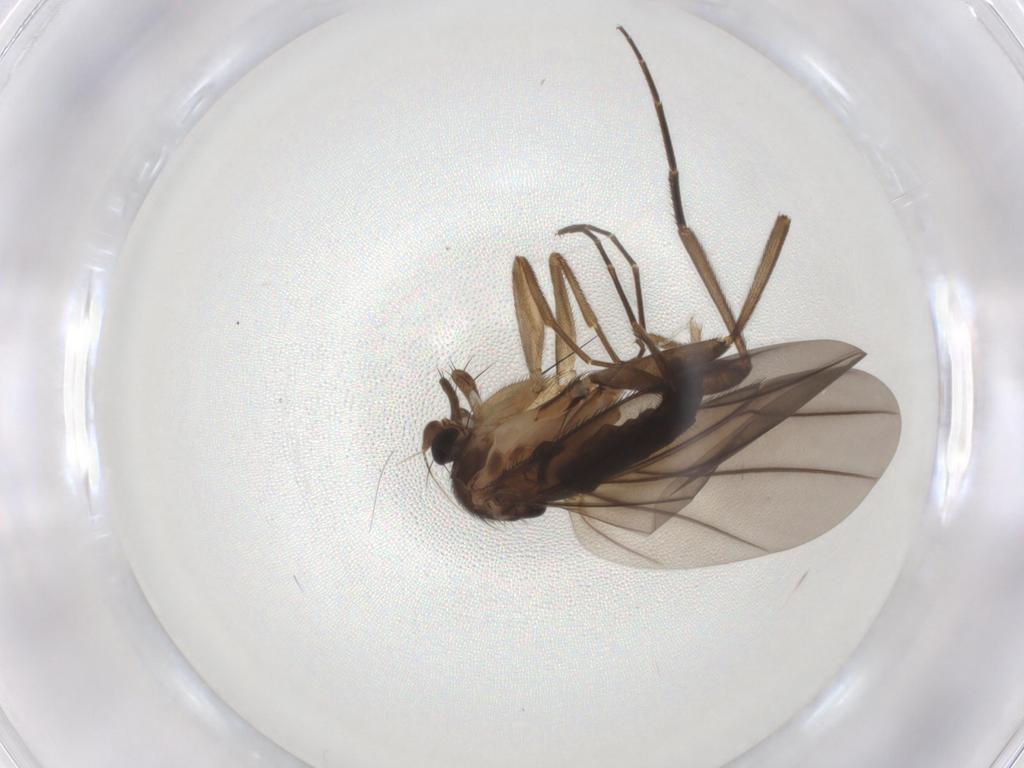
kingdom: Animalia
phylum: Arthropoda
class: Insecta
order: Diptera
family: Phoridae
